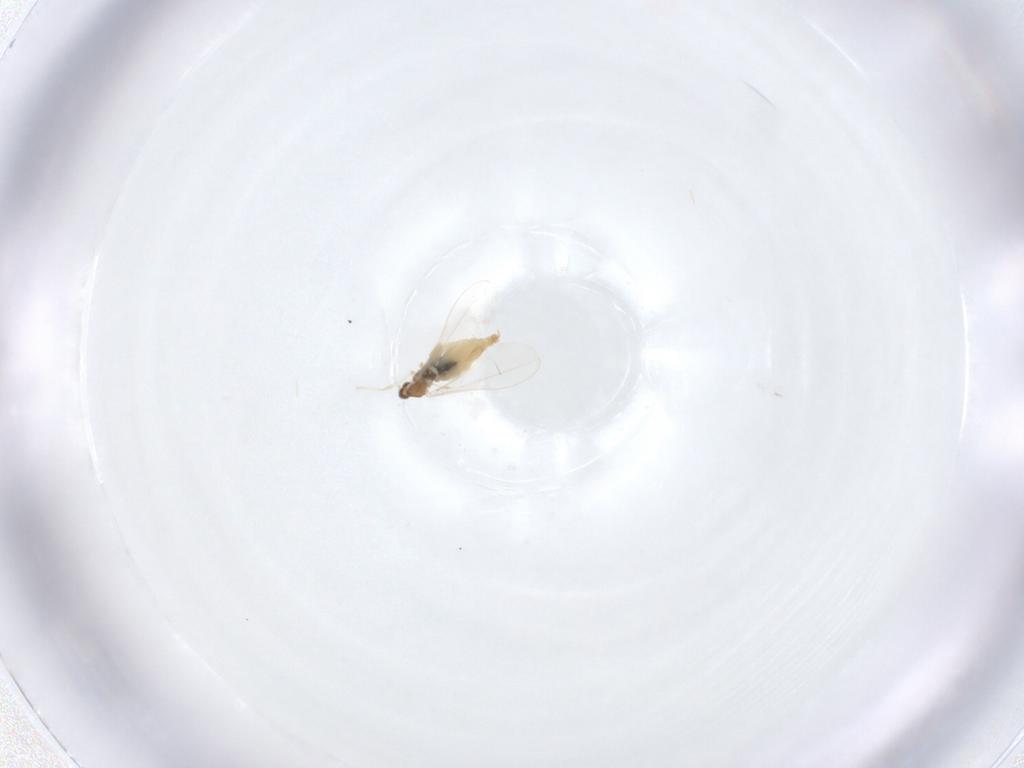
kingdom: Animalia
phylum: Arthropoda
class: Insecta
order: Diptera
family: Cecidomyiidae
